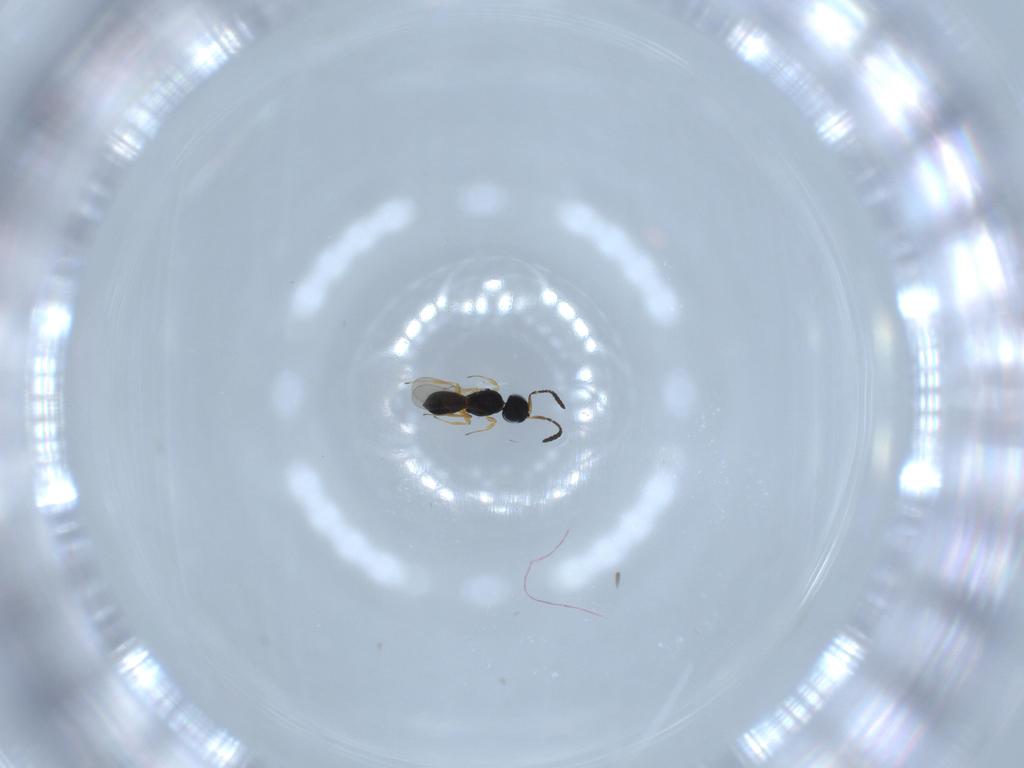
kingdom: Animalia
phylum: Arthropoda
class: Insecta
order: Hymenoptera
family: Scelionidae
